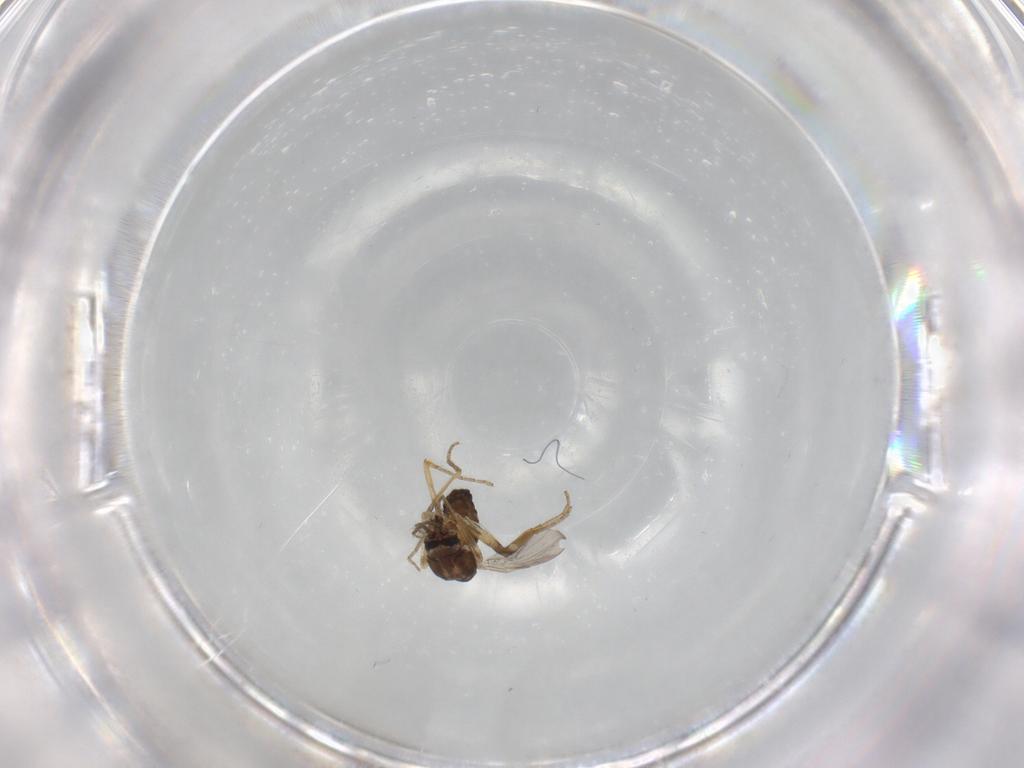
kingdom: Animalia
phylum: Arthropoda
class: Insecta
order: Diptera
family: Ceratopogonidae
